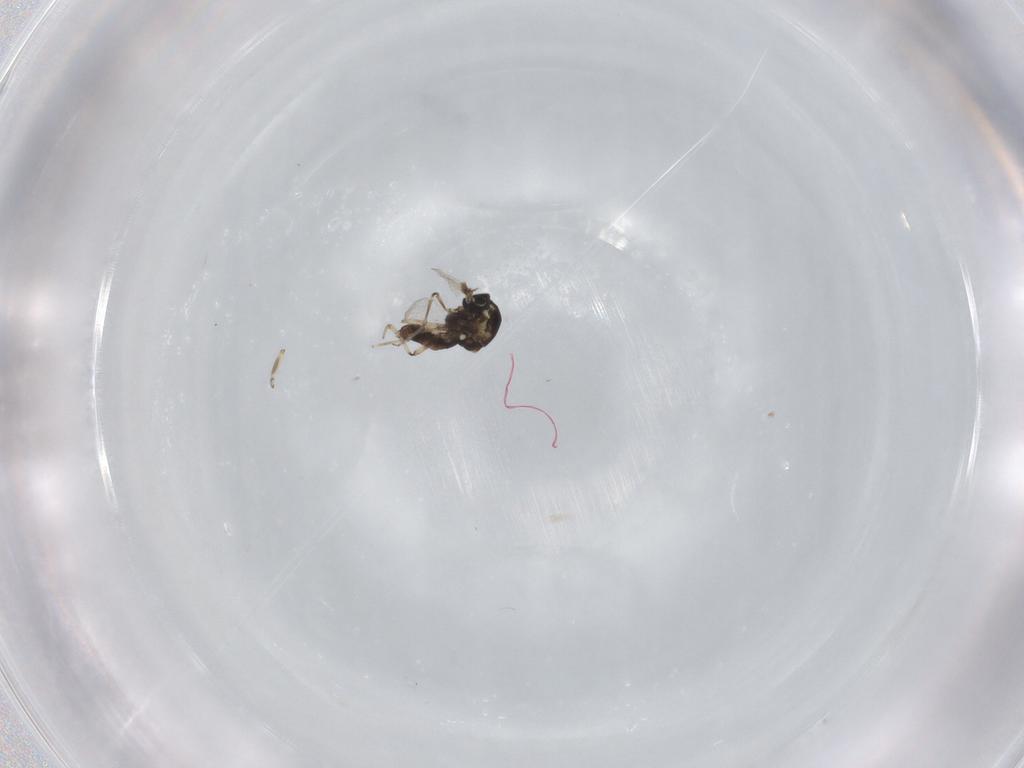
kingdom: Animalia
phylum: Arthropoda
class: Insecta
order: Diptera
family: Ceratopogonidae
